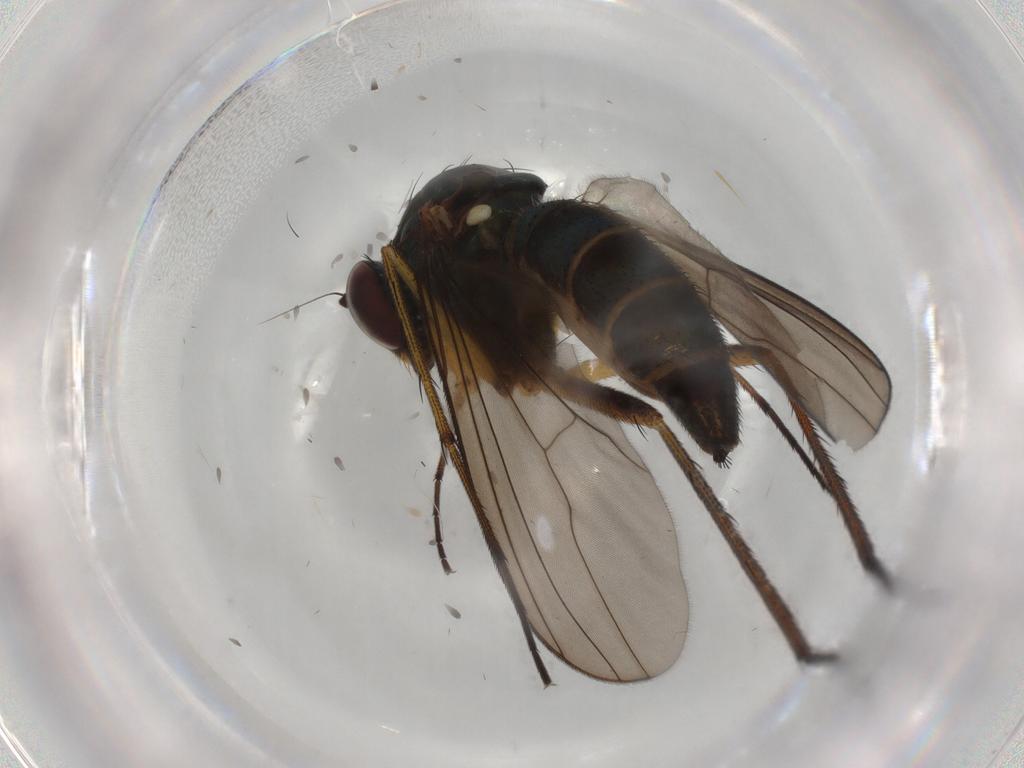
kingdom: Animalia
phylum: Arthropoda
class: Insecta
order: Diptera
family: Dolichopodidae
